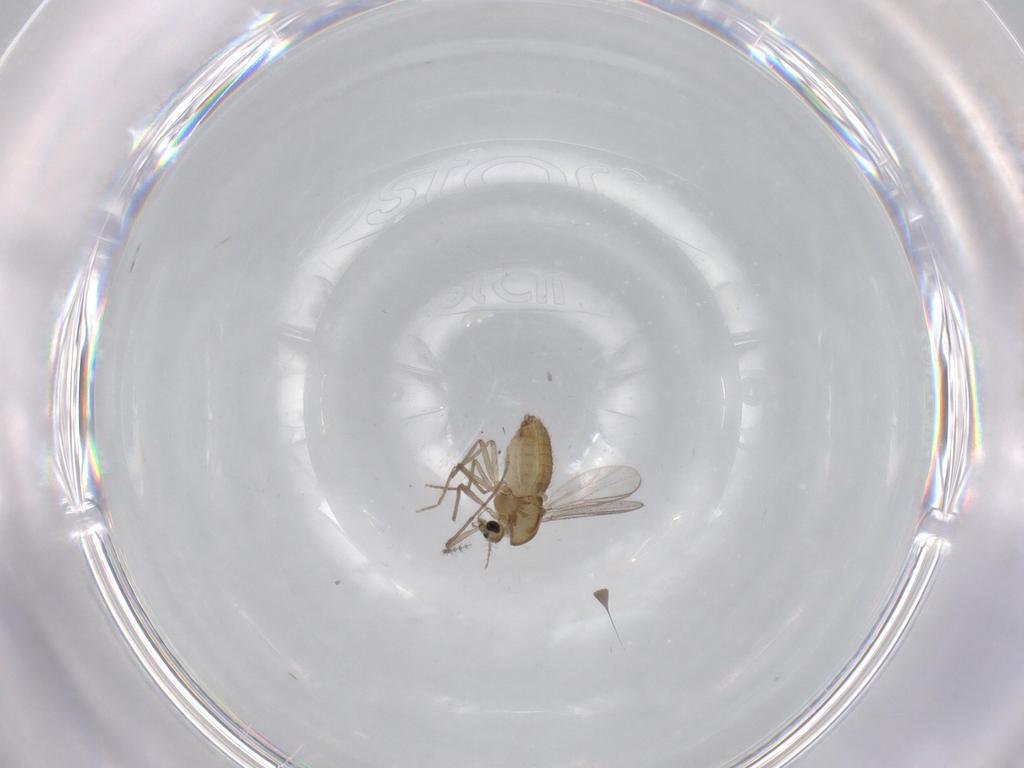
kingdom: Animalia
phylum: Arthropoda
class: Insecta
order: Diptera
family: Chironomidae
